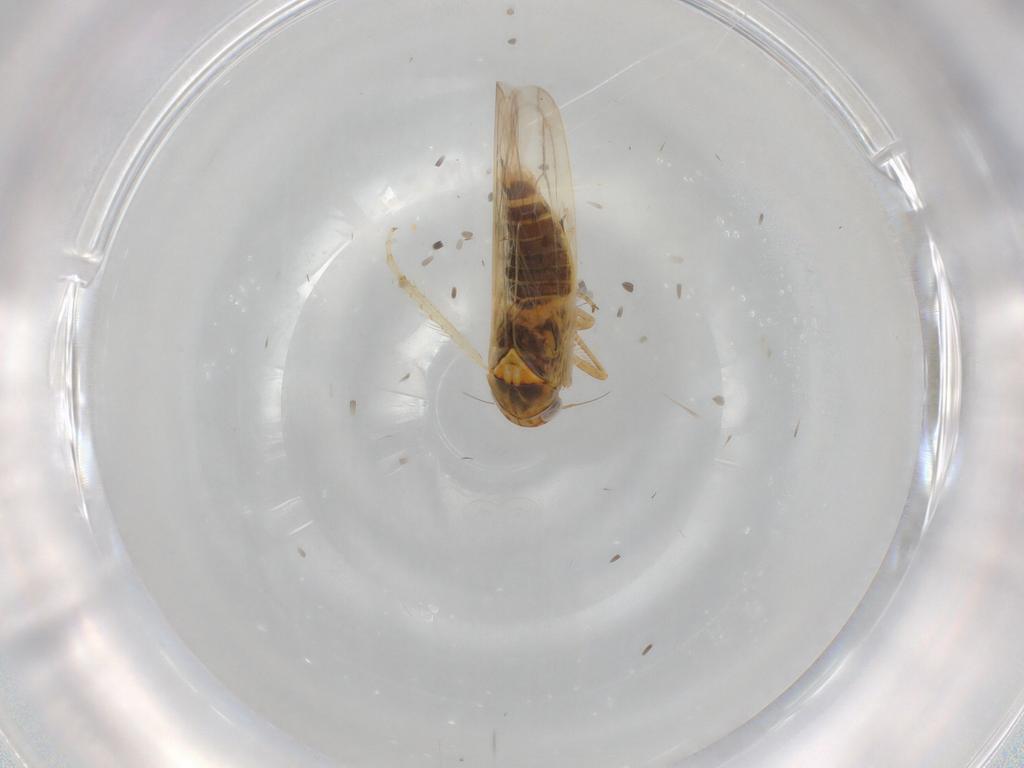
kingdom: Animalia
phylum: Arthropoda
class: Insecta
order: Hemiptera
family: Cicadellidae
